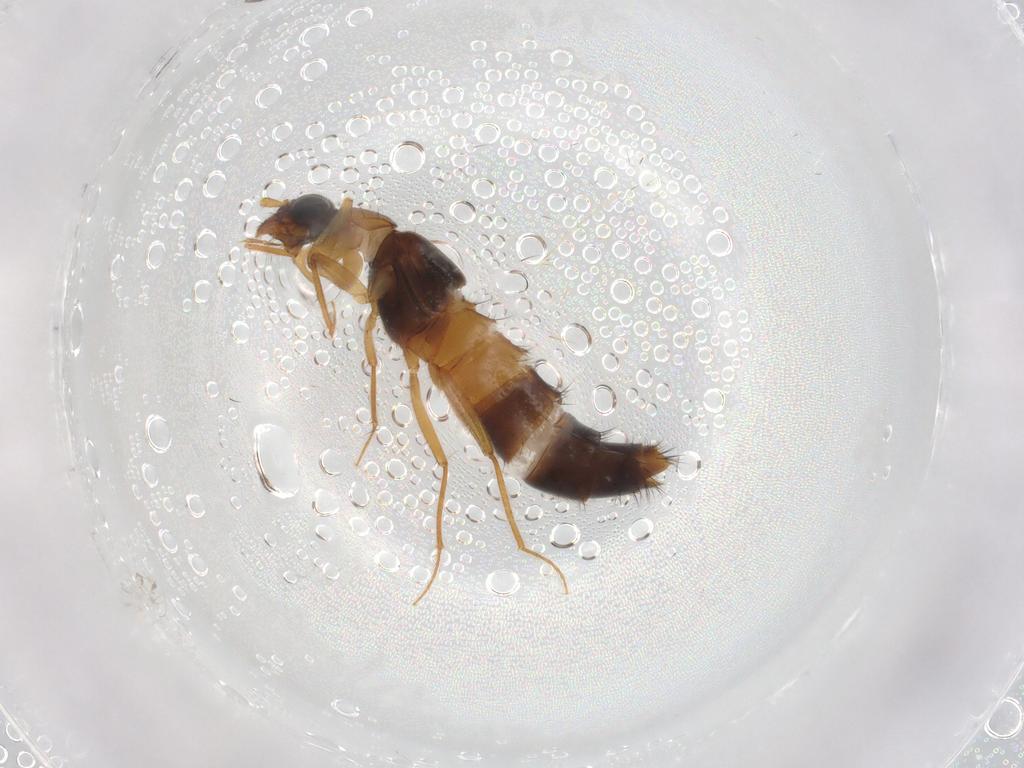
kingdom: Animalia
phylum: Arthropoda
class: Insecta
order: Coleoptera
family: Staphylinidae
